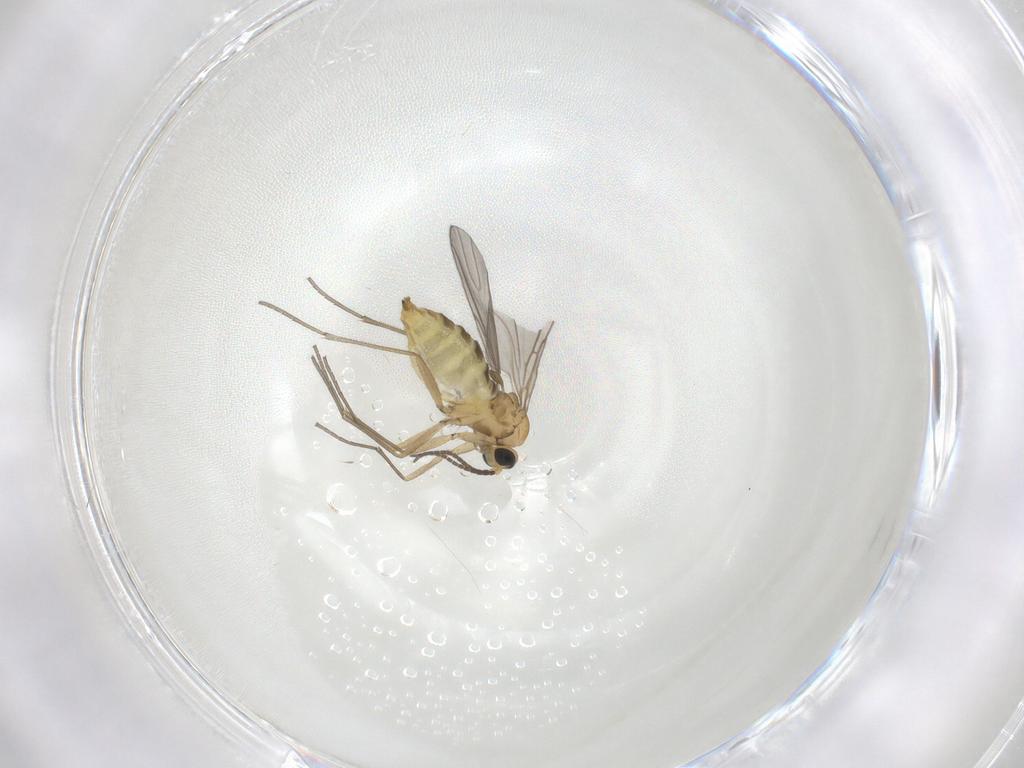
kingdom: Animalia
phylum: Arthropoda
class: Insecta
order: Diptera
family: Sciaridae
